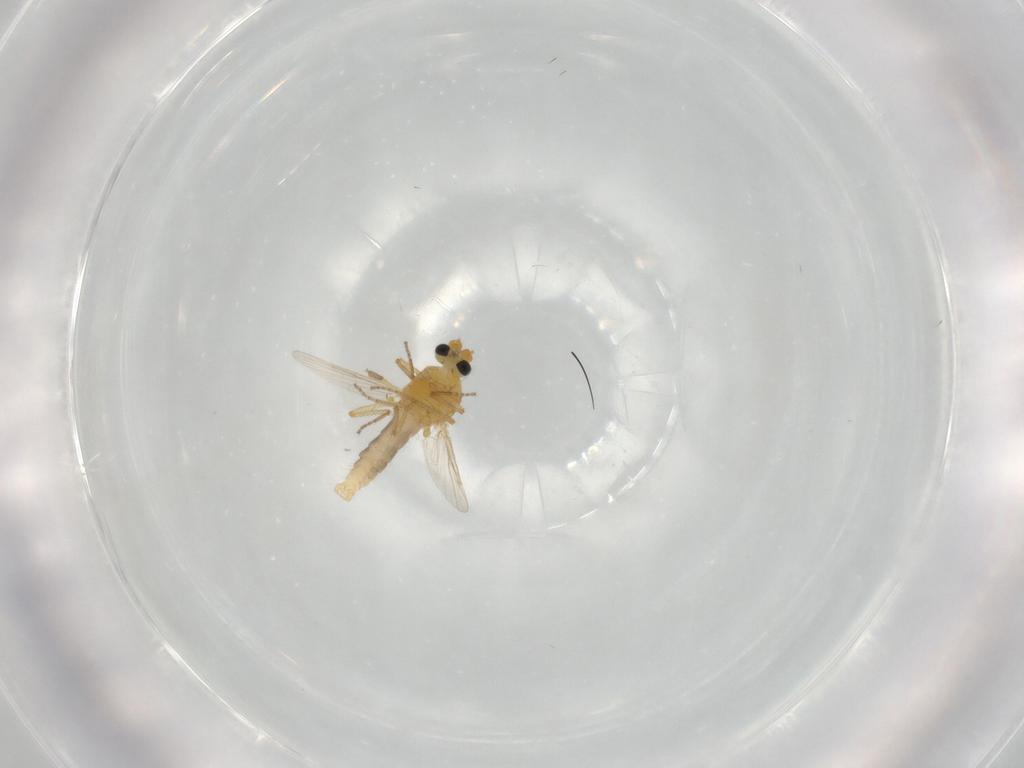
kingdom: Animalia
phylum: Arthropoda
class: Insecta
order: Diptera
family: Ceratopogonidae
